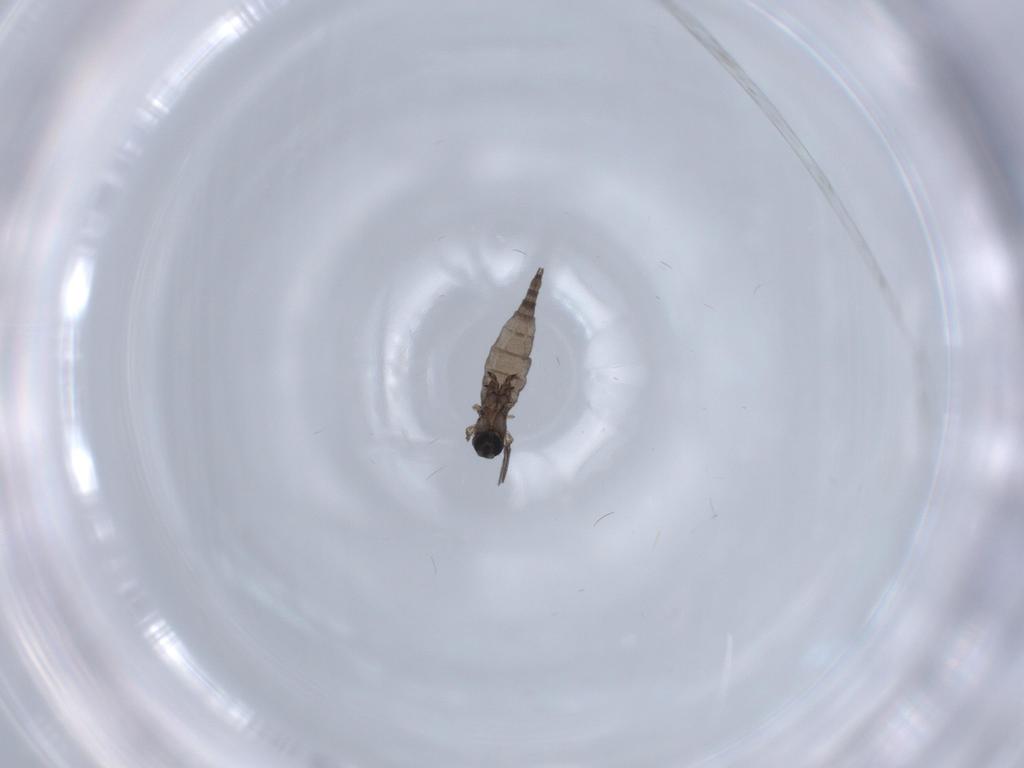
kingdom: Animalia
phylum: Arthropoda
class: Insecta
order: Diptera
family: Sciaridae
